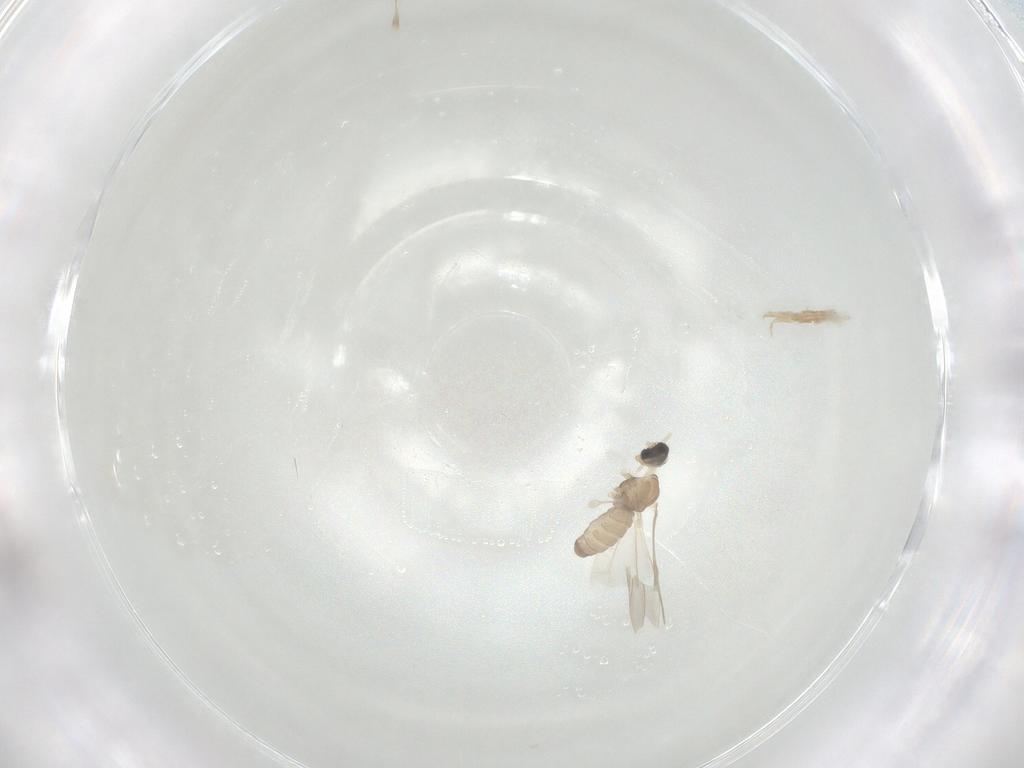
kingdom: Animalia
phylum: Arthropoda
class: Insecta
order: Diptera
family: Cecidomyiidae
